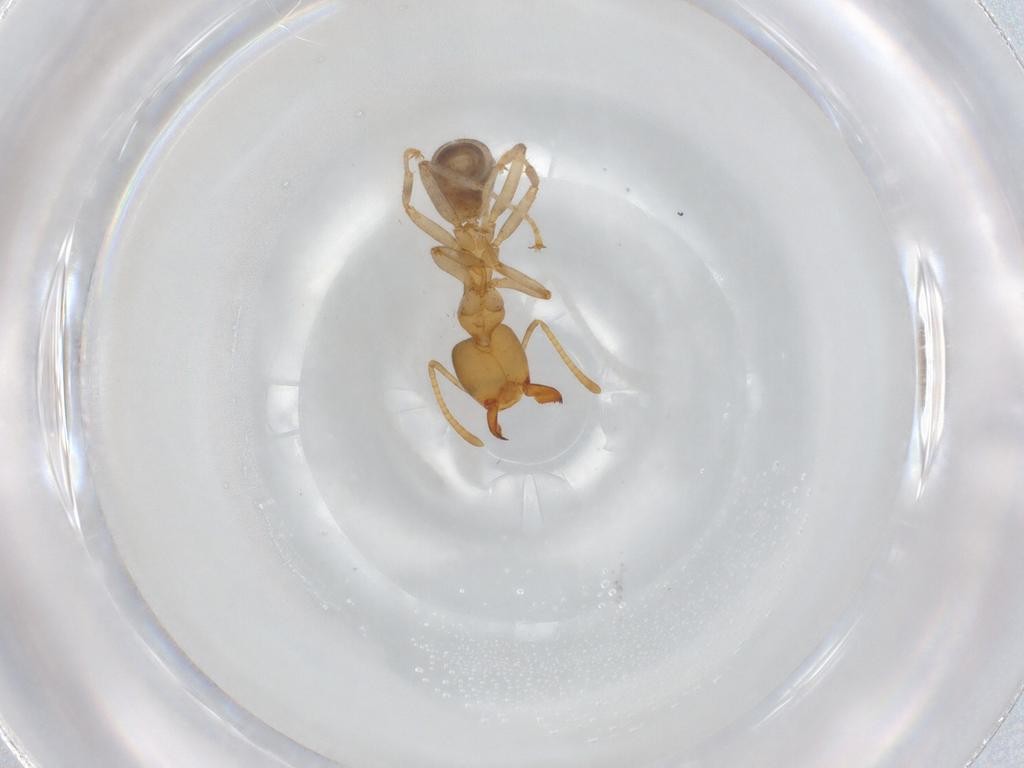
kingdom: Animalia
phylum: Arthropoda
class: Insecta
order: Hymenoptera
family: Formicidae
